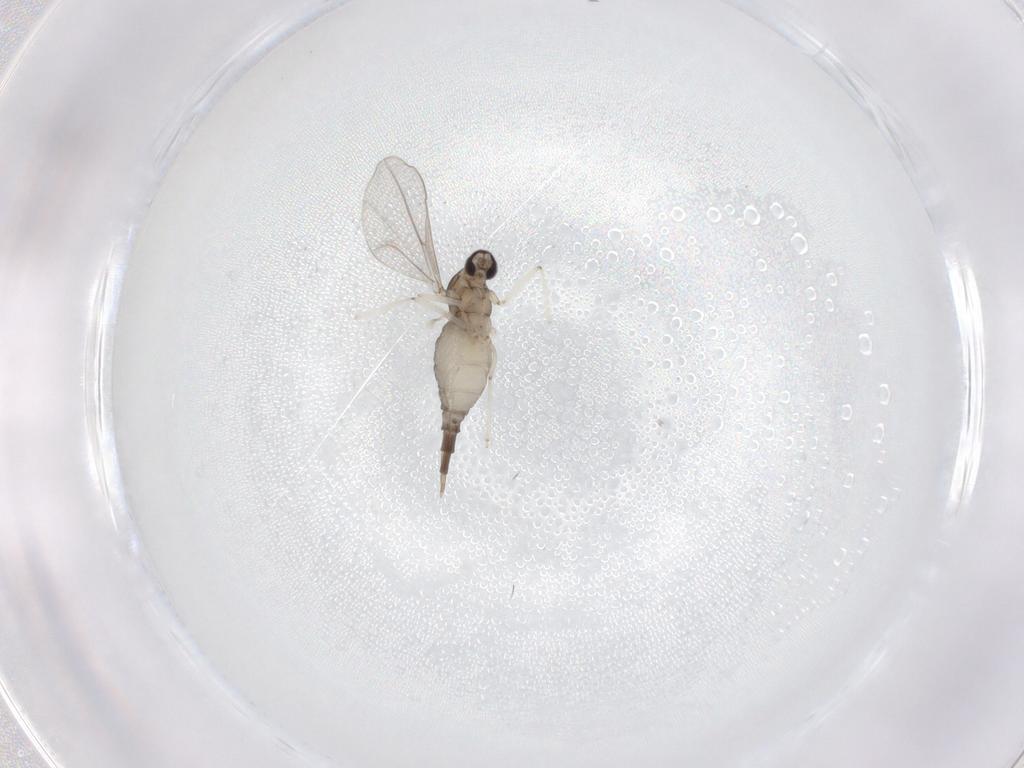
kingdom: Animalia
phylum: Arthropoda
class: Insecta
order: Diptera
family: Cecidomyiidae
